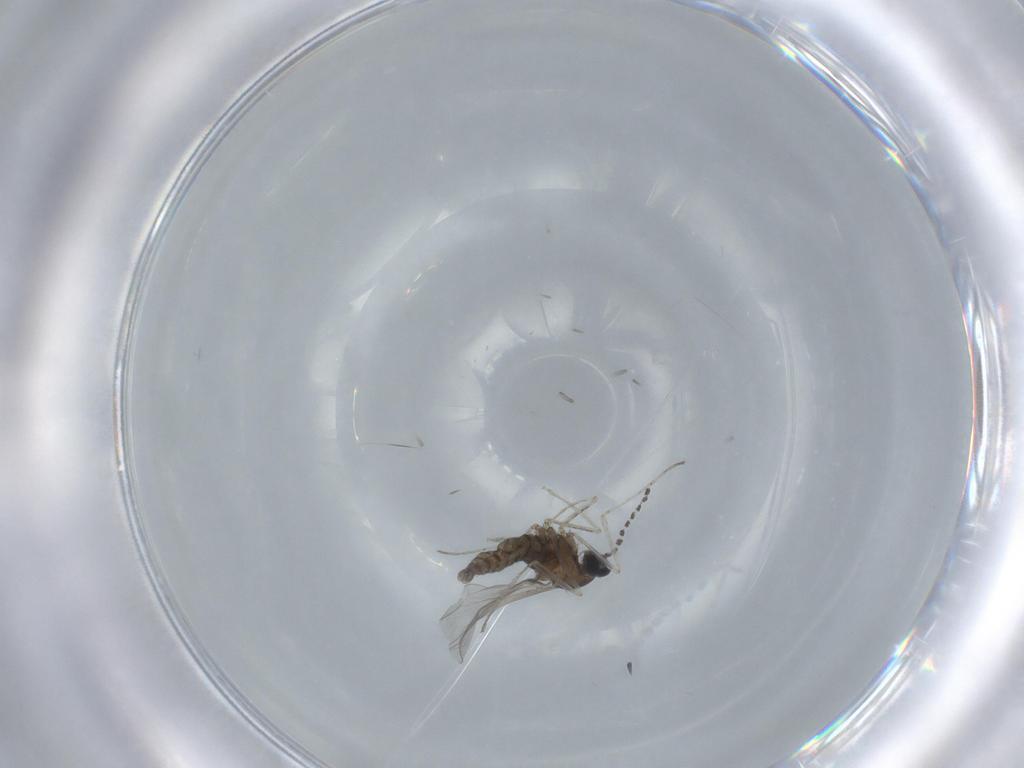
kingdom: Animalia
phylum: Arthropoda
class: Insecta
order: Diptera
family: Cecidomyiidae
